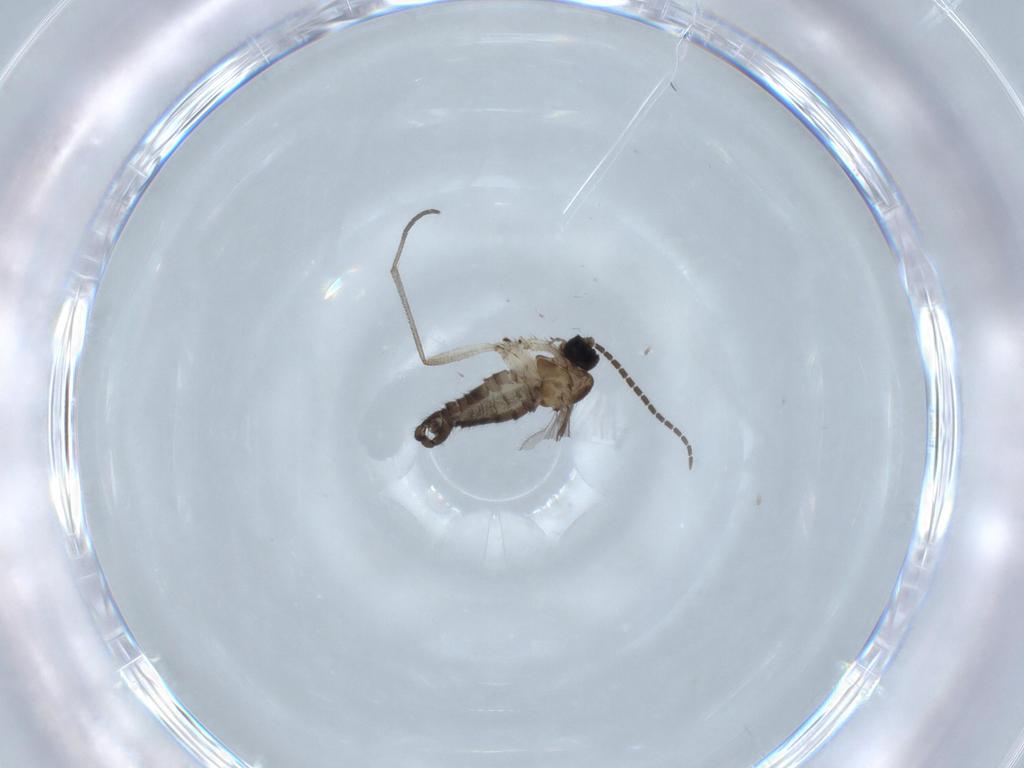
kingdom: Animalia
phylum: Arthropoda
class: Insecta
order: Diptera
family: Sciaridae
